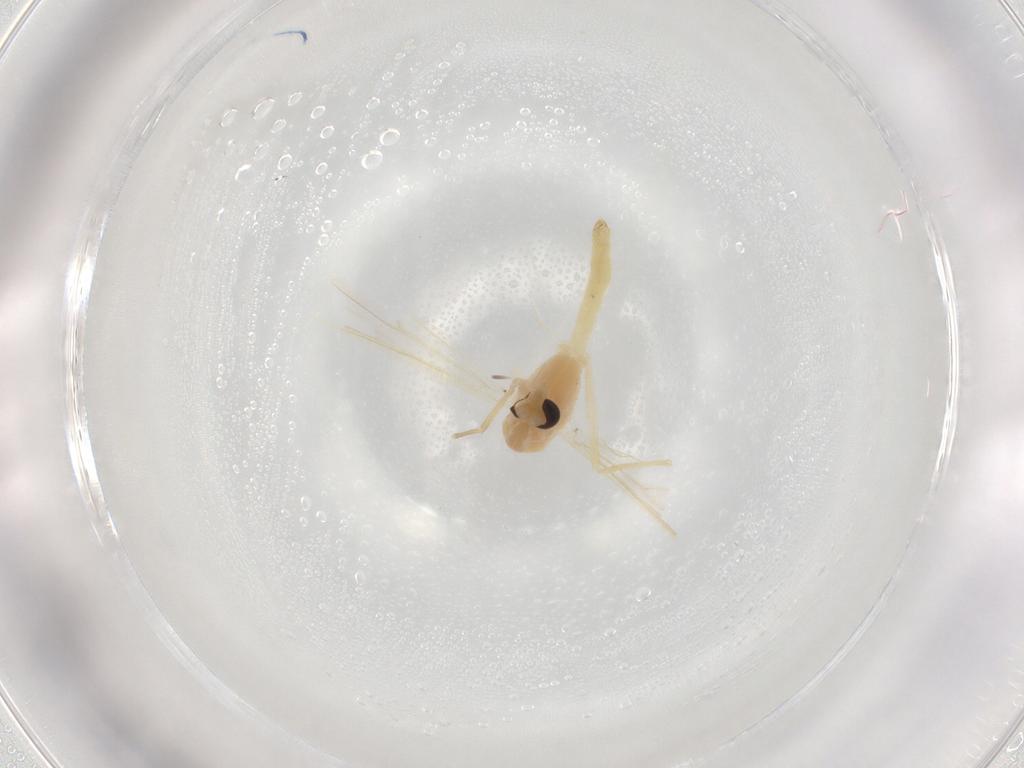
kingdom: Animalia
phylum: Arthropoda
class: Insecta
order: Diptera
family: Chironomidae
